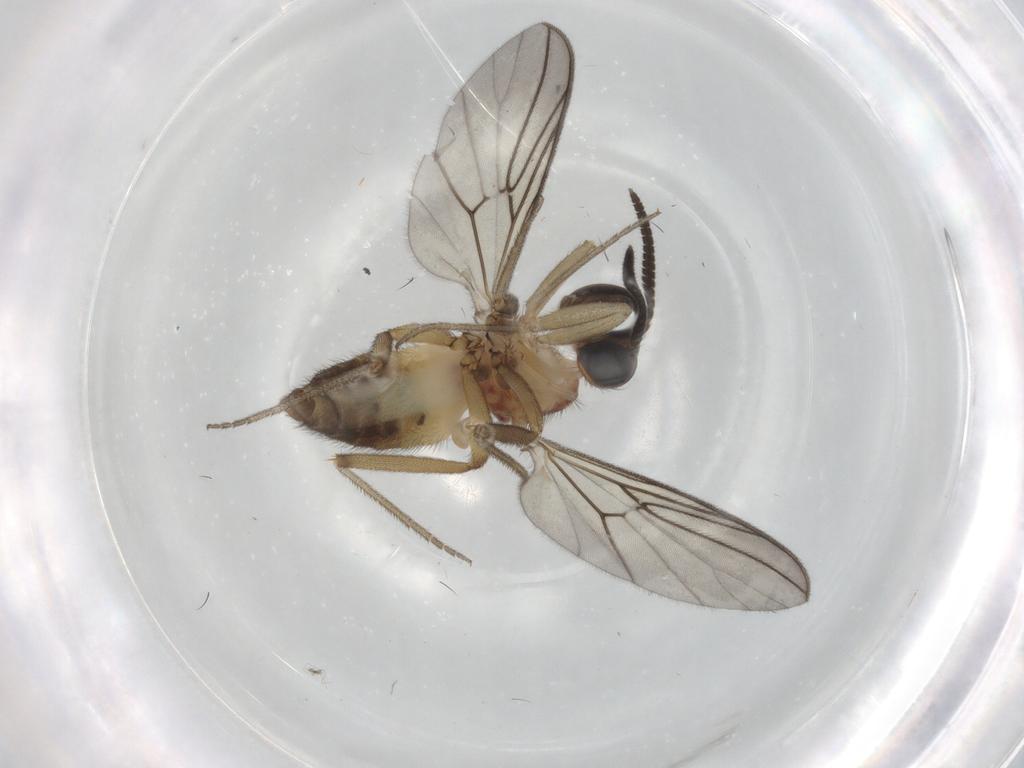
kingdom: Animalia
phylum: Arthropoda
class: Insecta
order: Diptera
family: Anisopodidae
